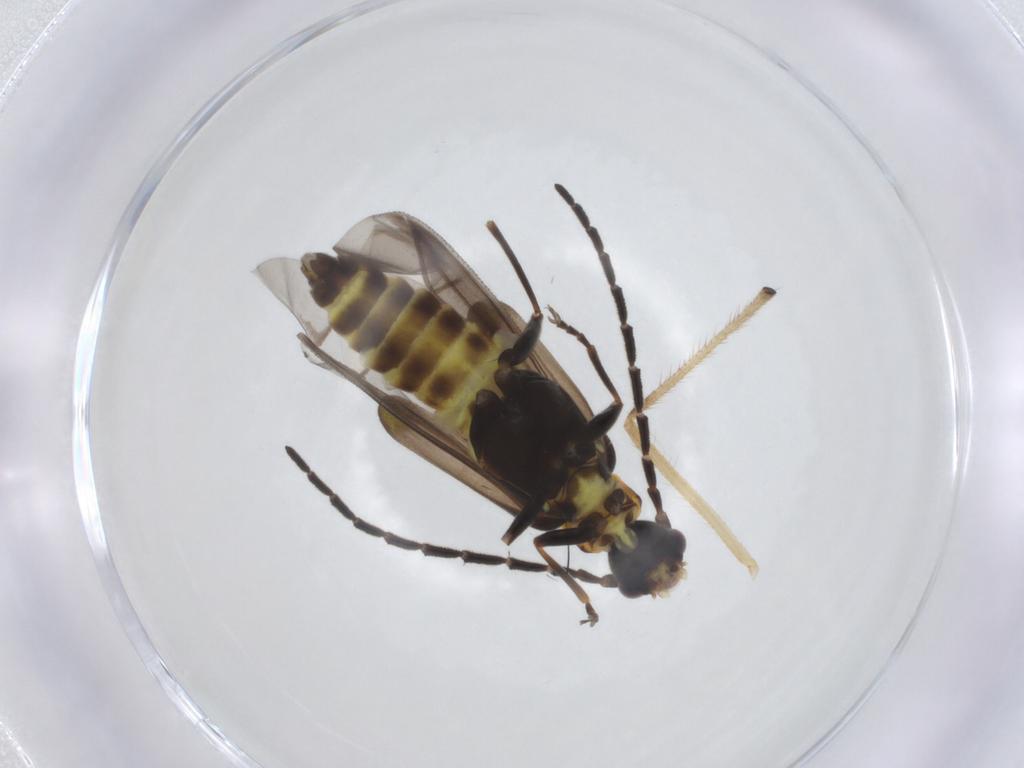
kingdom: Animalia
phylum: Arthropoda
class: Insecta
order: Coleoptera
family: Cantharidae
